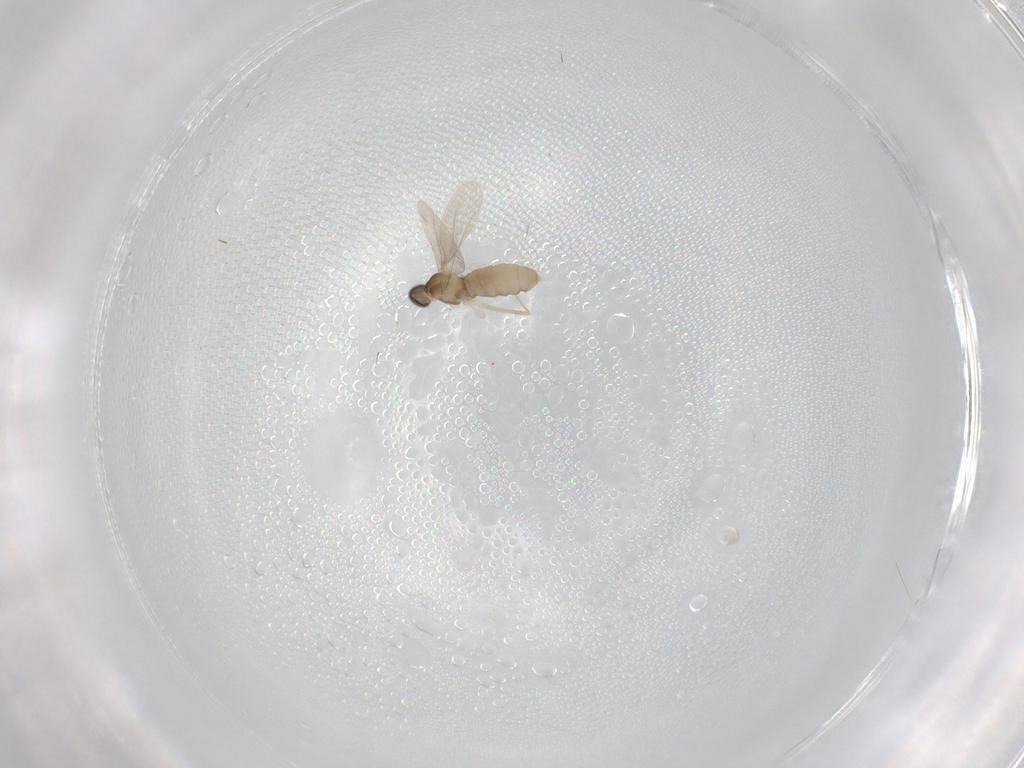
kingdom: Animalia
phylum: Arthropoda
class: Insecta
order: Diptera
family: Cecidomyiidae
